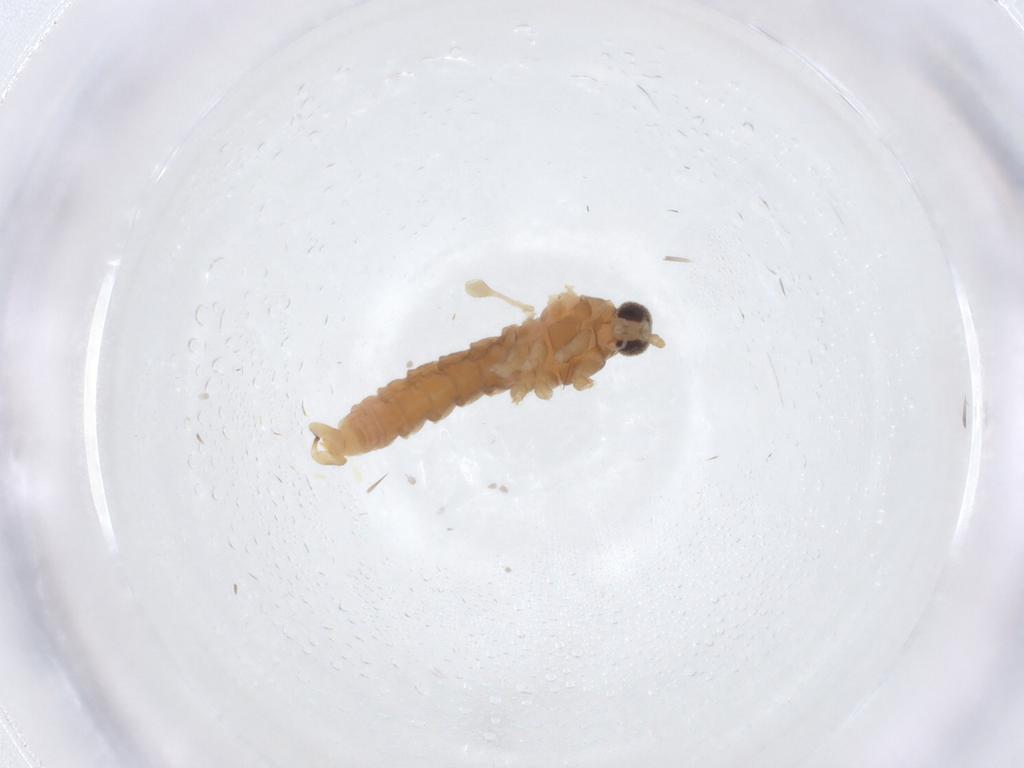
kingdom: Animalia
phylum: Arthropoda
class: Insecta
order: Diptera
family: Cecidomyiidae
